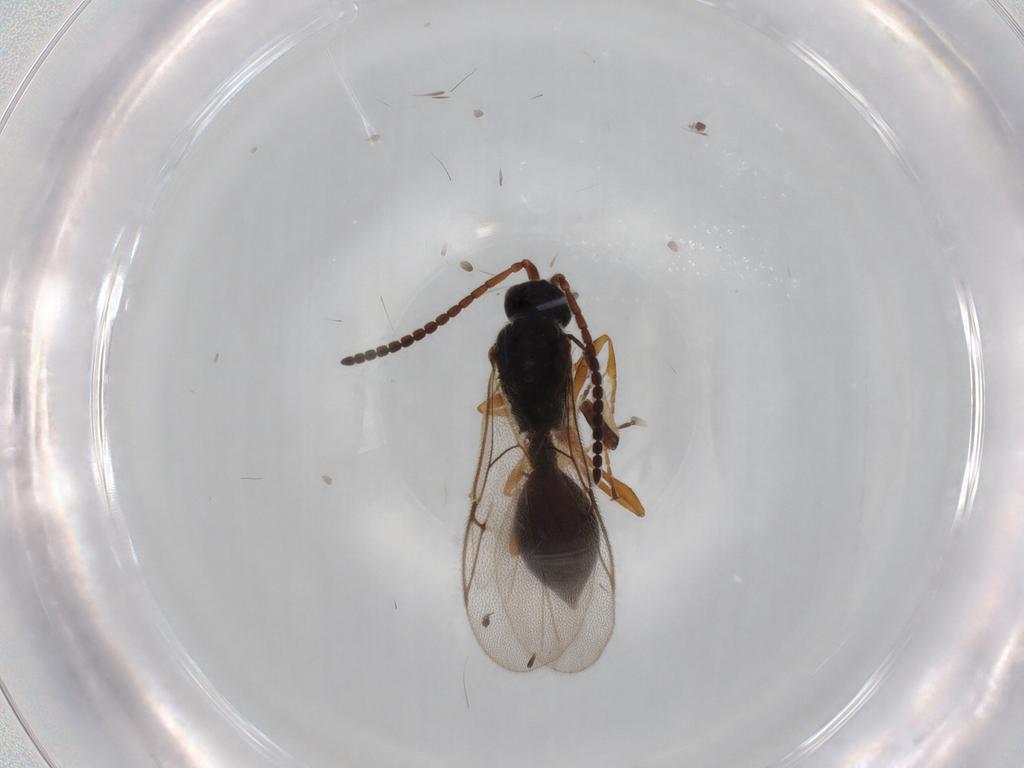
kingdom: Animalia
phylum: Arthropoda
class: Insecta
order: Hymenoptera
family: Diapriidae
